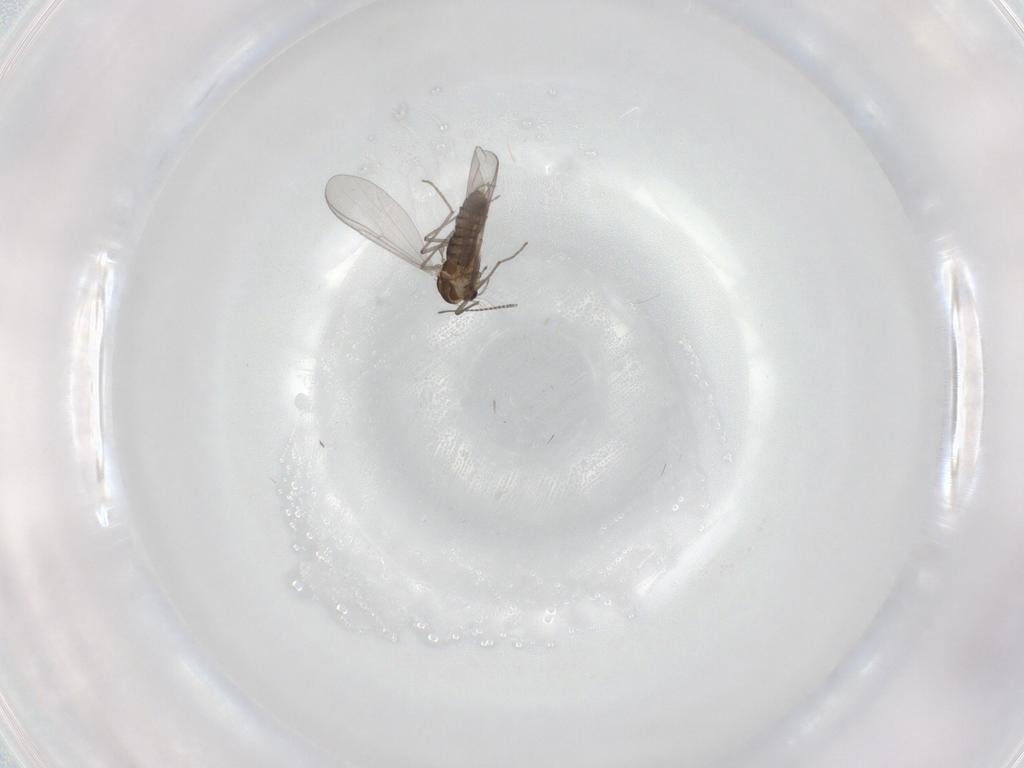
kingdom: Animalia
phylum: Arthropoda
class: Insecta
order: Diptera
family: Chironomidae
